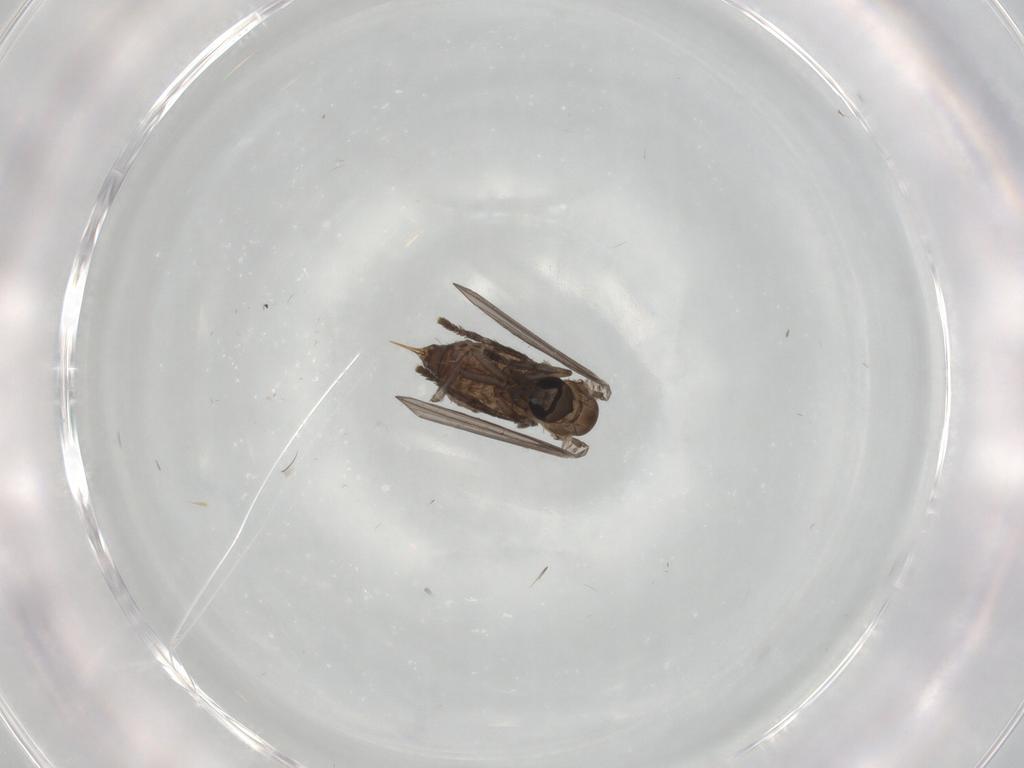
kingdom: Animalia
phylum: Arthropoda
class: Insecta
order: Diptera
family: Psychodidae
